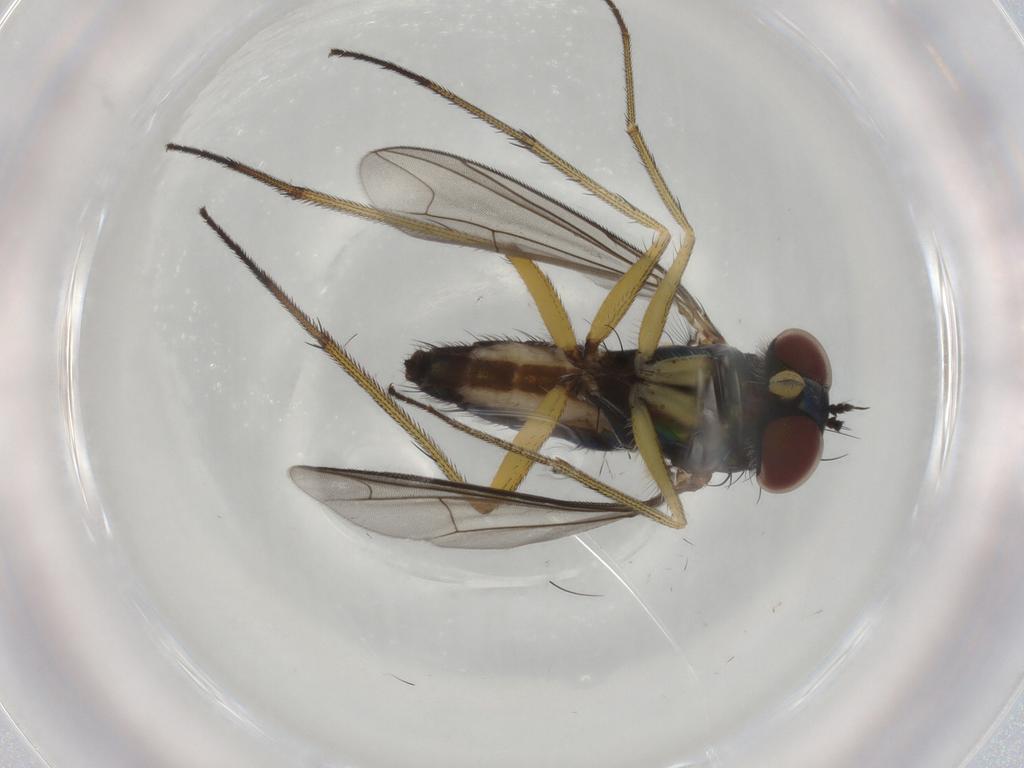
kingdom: Animalia
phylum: Arthropoda
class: Insecta
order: Diptera
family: Dolichopodidae
